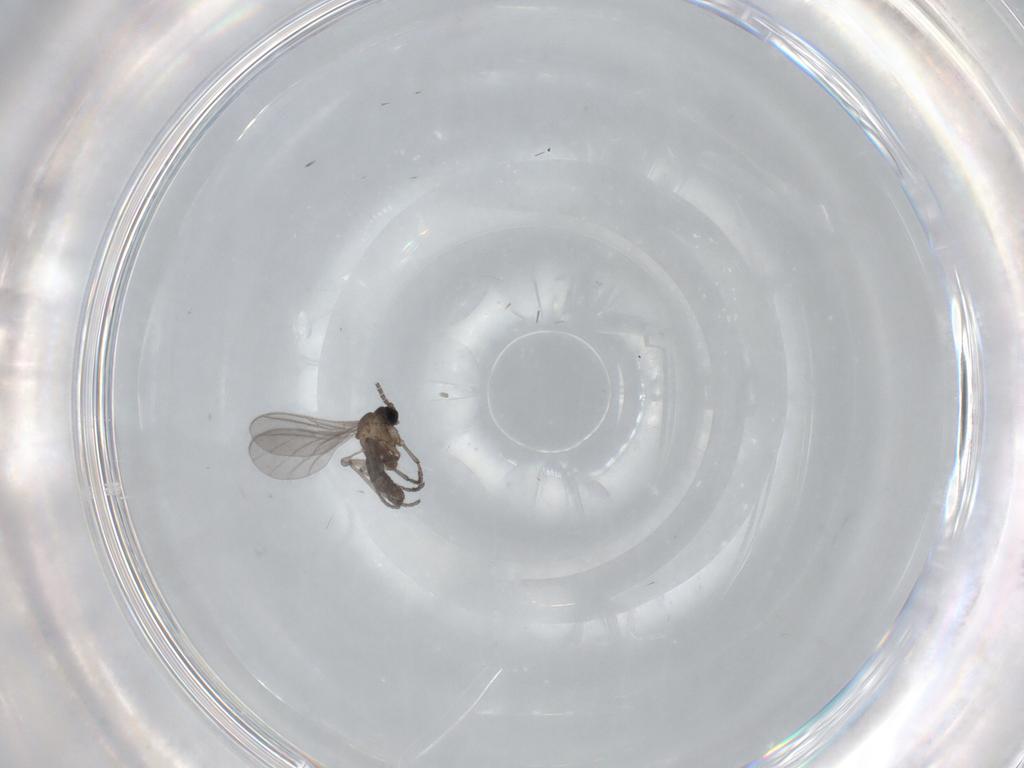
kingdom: Animalia
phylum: Arthropoda
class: Insecta
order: Diptera
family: Sciaridae
